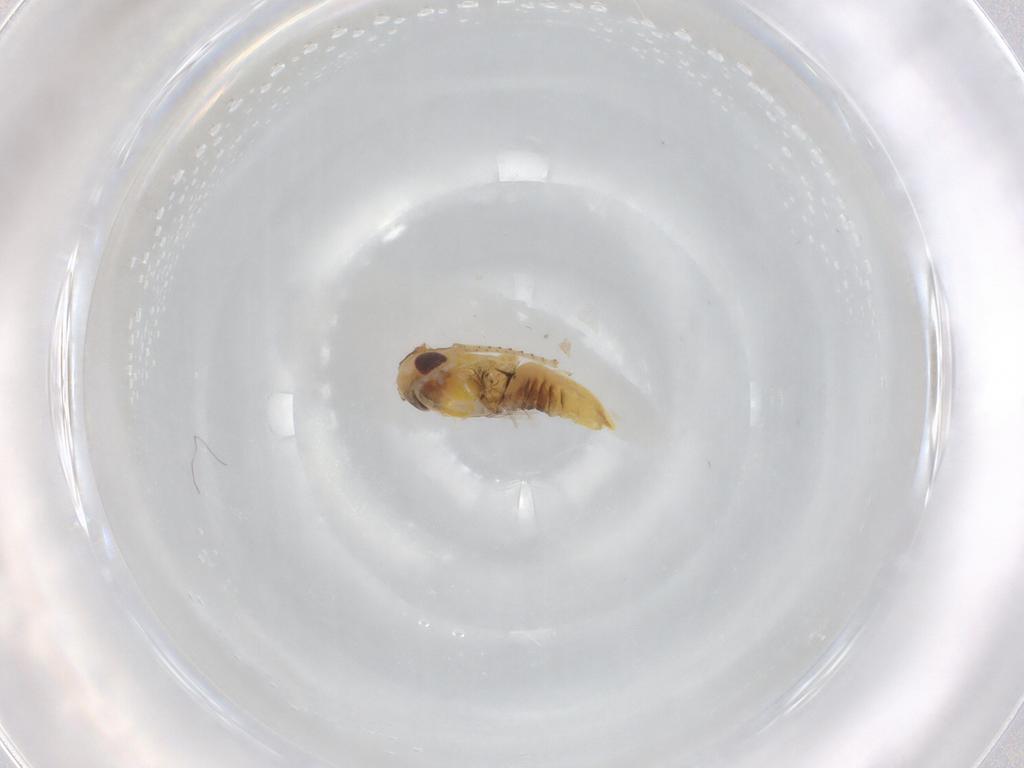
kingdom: Animalia
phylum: Arthropoda
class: Insecta
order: Hemiptera
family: Cicadellidae
